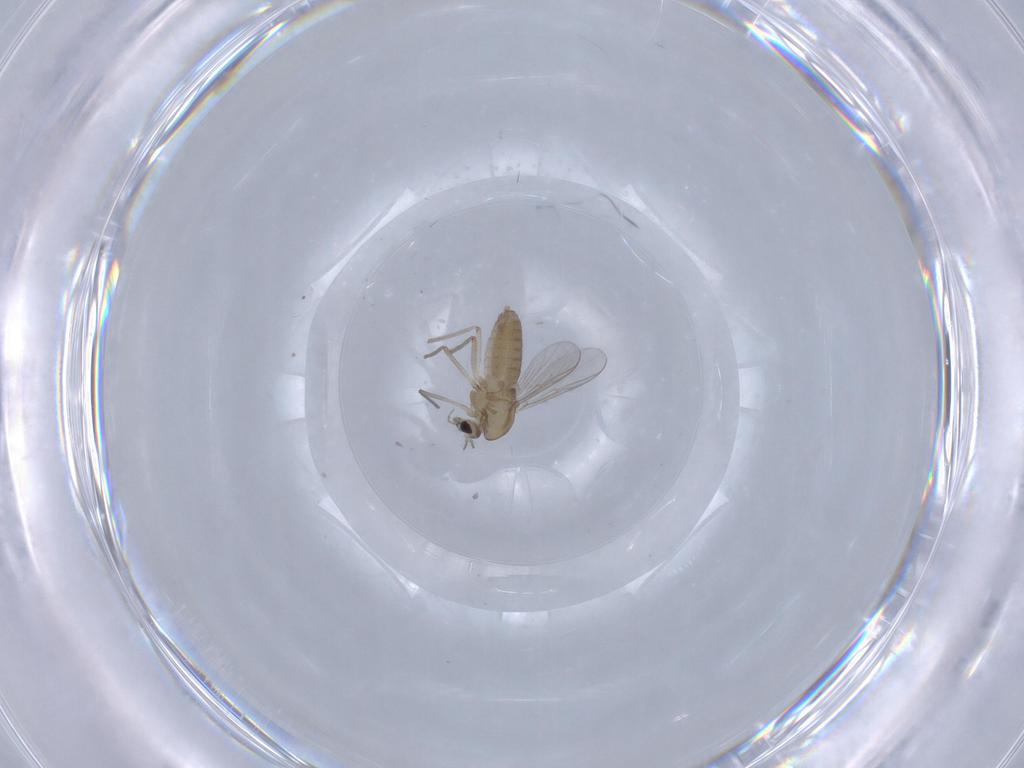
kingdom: Animalia
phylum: Arthropoda
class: Insecta
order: Diptera
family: Chironomidae
